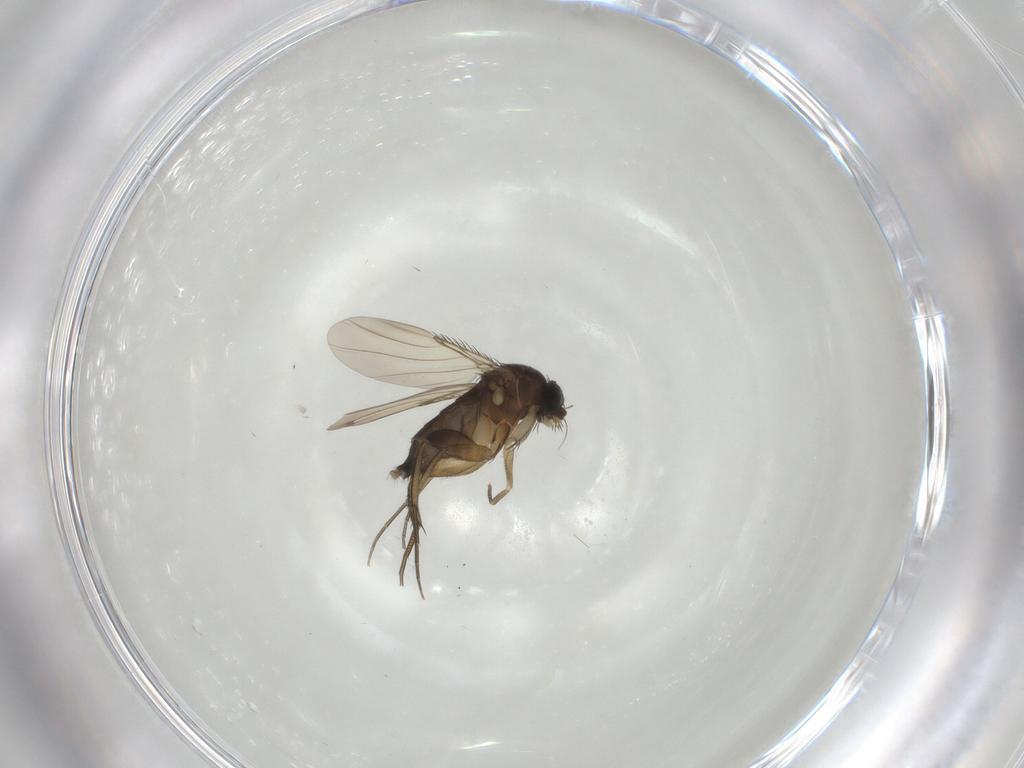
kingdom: Animalia
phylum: Arthropoda
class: Insecta
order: Diptera
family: Phoridae
